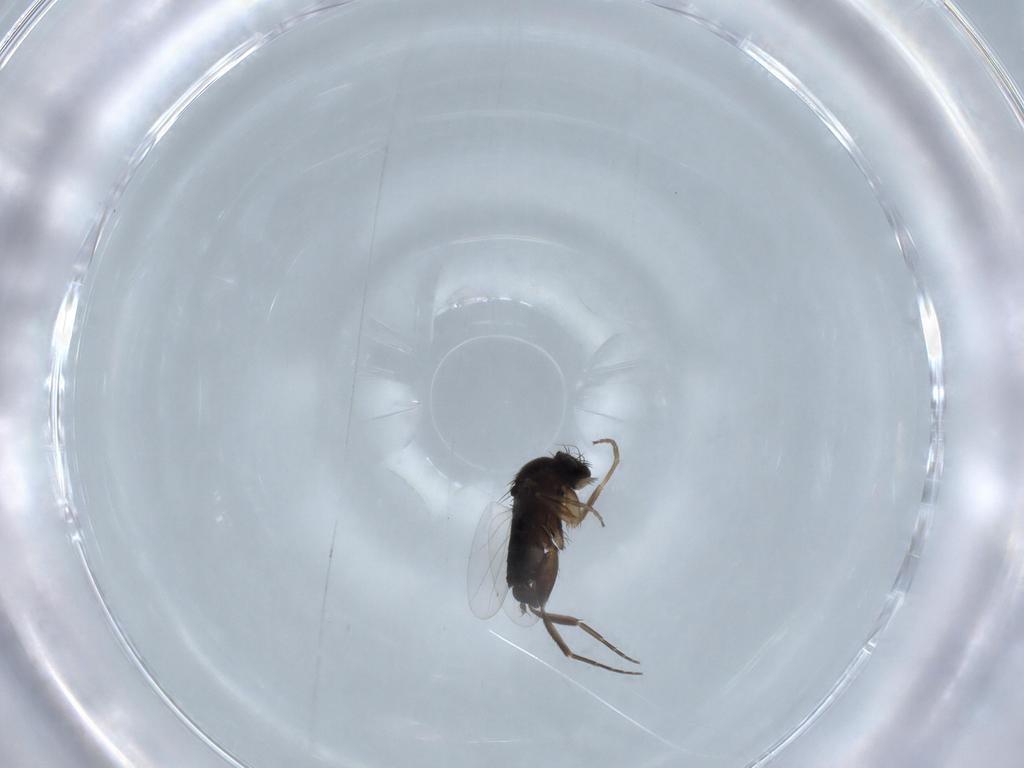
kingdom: Animalia
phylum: Arthropoda
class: Insecta
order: Diptera
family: Phoridae
